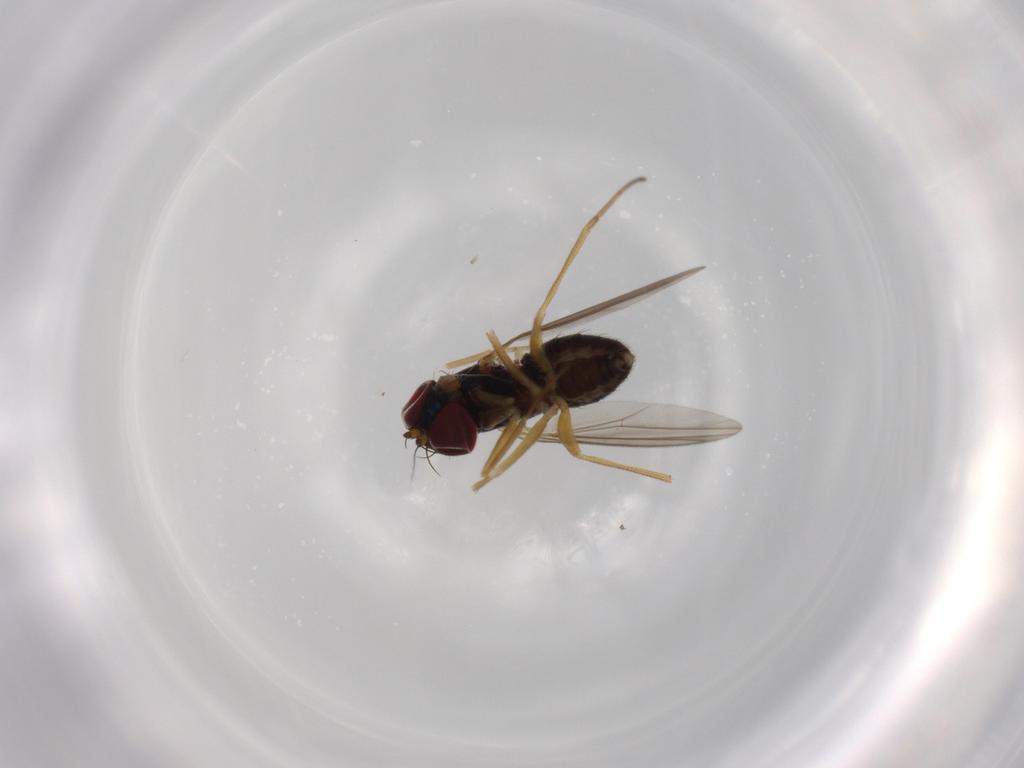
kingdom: Animalia
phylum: Arthropoda
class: Insecta
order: Diptera
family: Dolichopodidae
